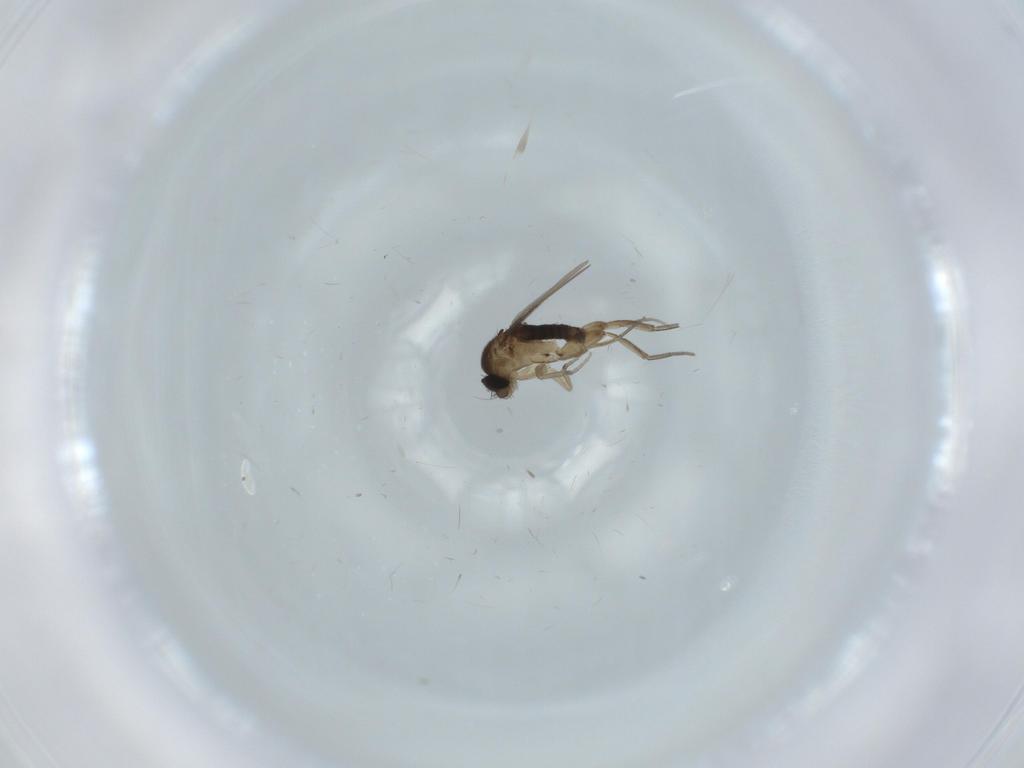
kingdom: Animalia
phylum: Arthropoda
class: Insecta
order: Diptera
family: Phoridae
